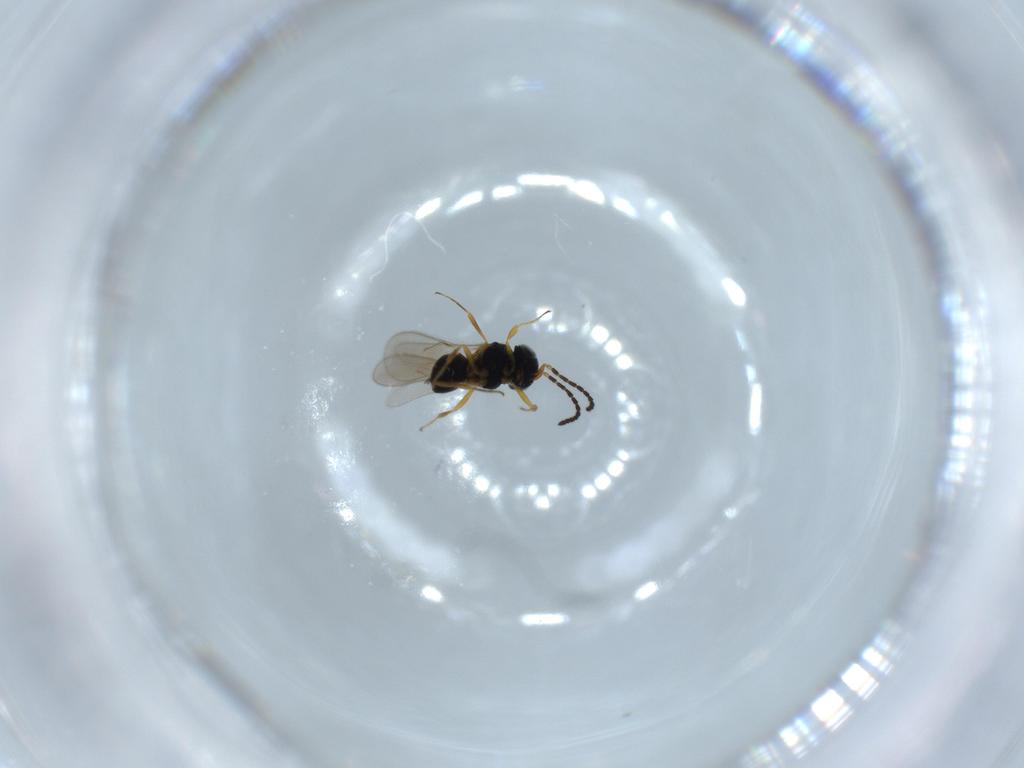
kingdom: Animalia
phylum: Arthropoda
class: Insecta
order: Hymenoptera
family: Scelionidae
